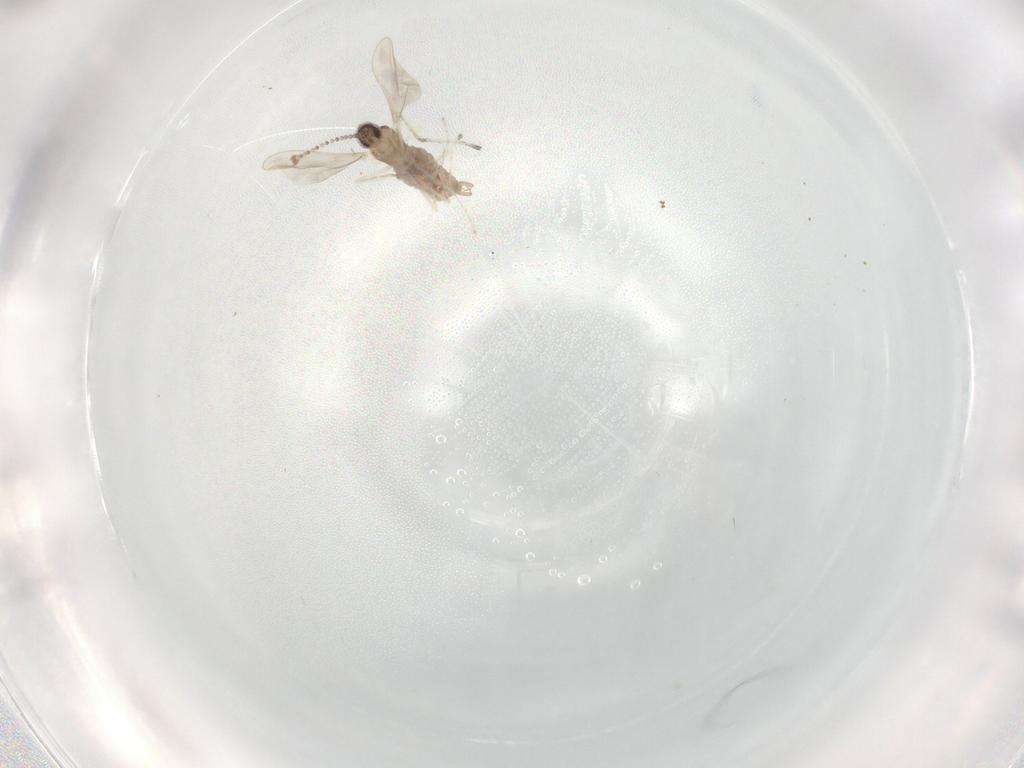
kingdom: Animalia
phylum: Arthropoda
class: Insecta
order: Diptera
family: Cecidomyiidae
